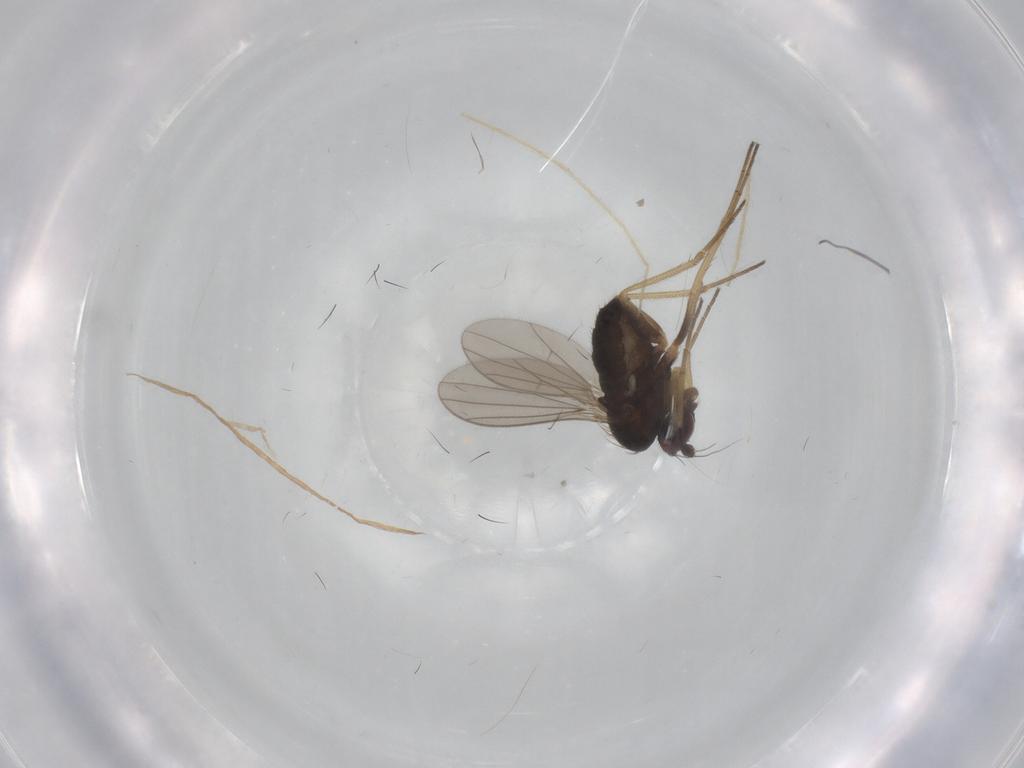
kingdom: Animalia
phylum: Arthropoda
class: Insecta
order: Diptera
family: Dolichopodidae
